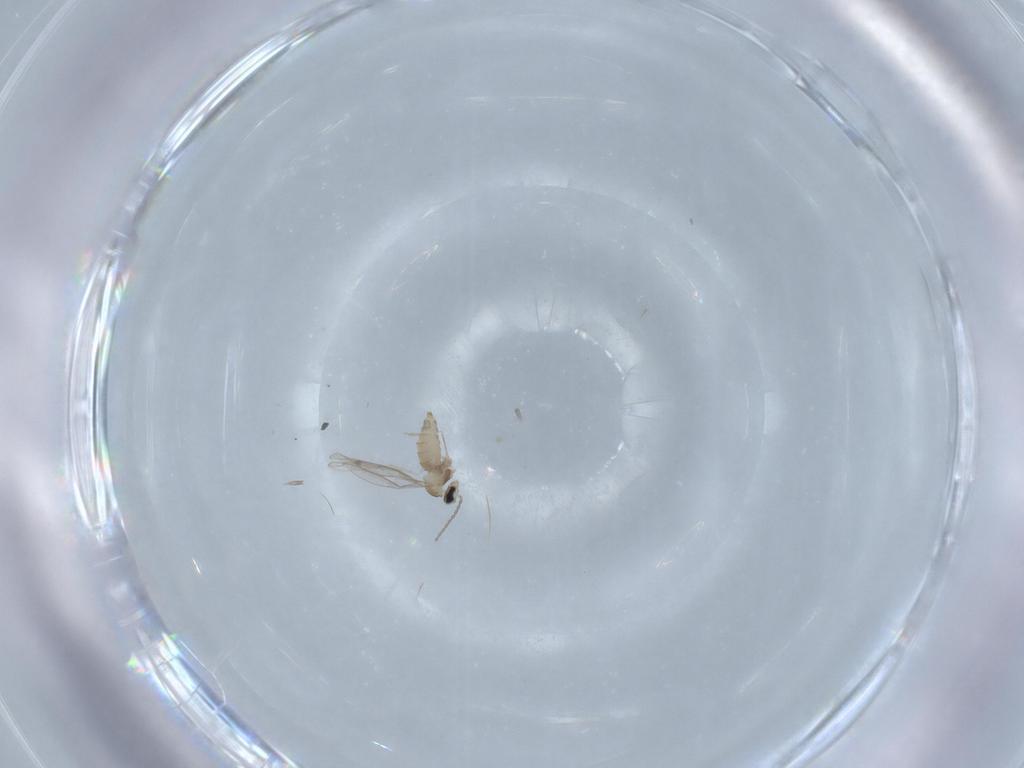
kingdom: Animalia
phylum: Arthropoda
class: Insecta
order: Diptera
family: Cecidomyiidae
